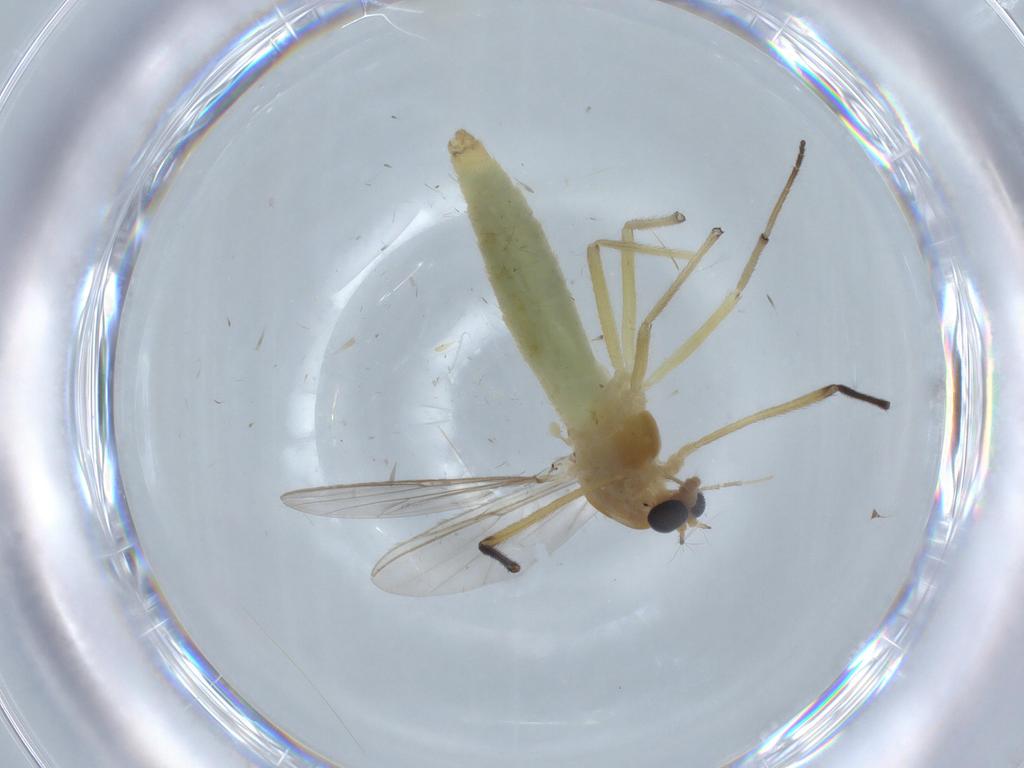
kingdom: Animalia
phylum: Arthropoda
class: Insecta
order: Diptera
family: Chironomidae
